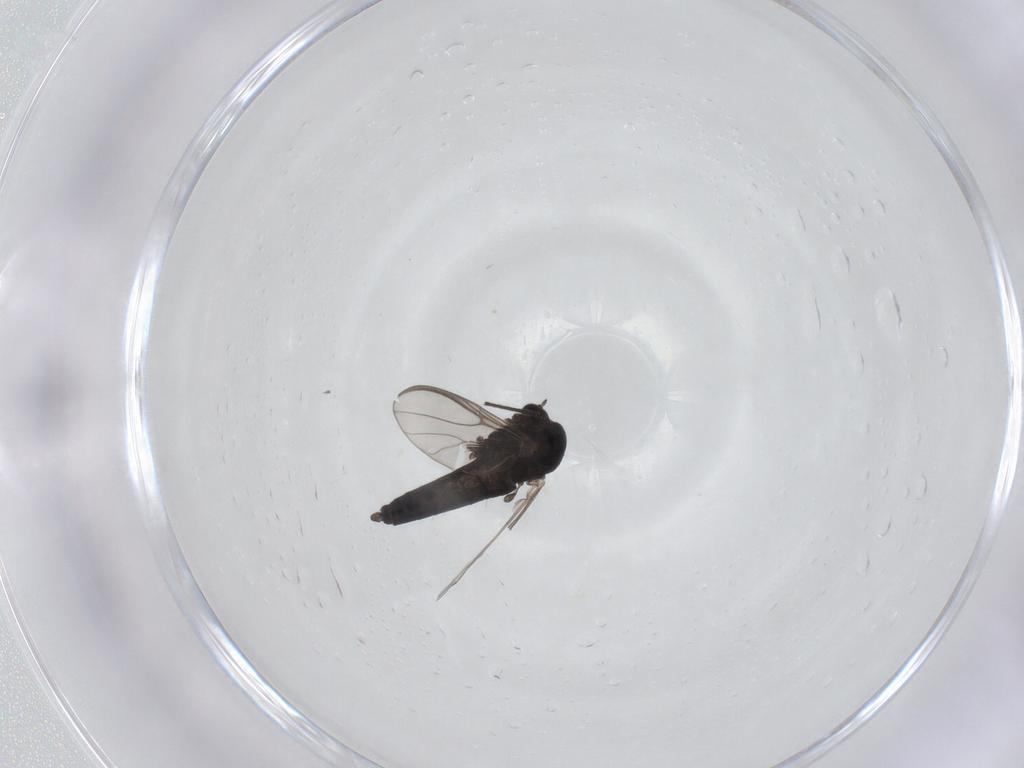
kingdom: Animalia
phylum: Arthropoda
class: Insecta
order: Diptera
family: Chironomidae
